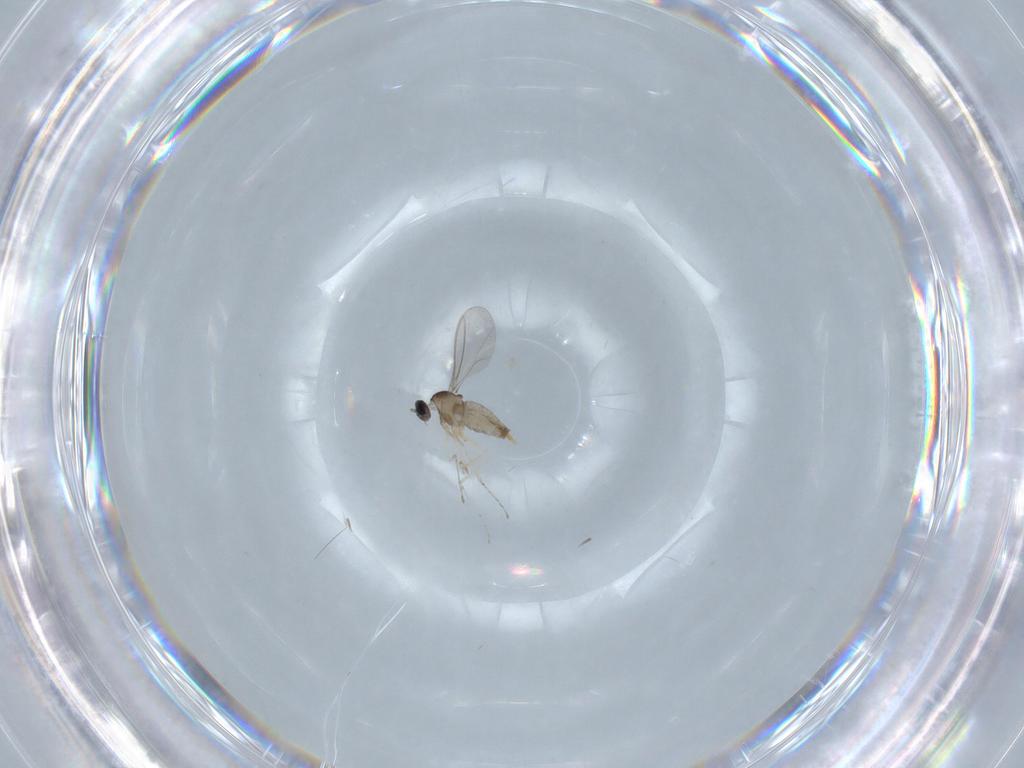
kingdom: Animalia
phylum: Arthropoda
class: Insecta
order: Diptera
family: Cecidomyiidae
